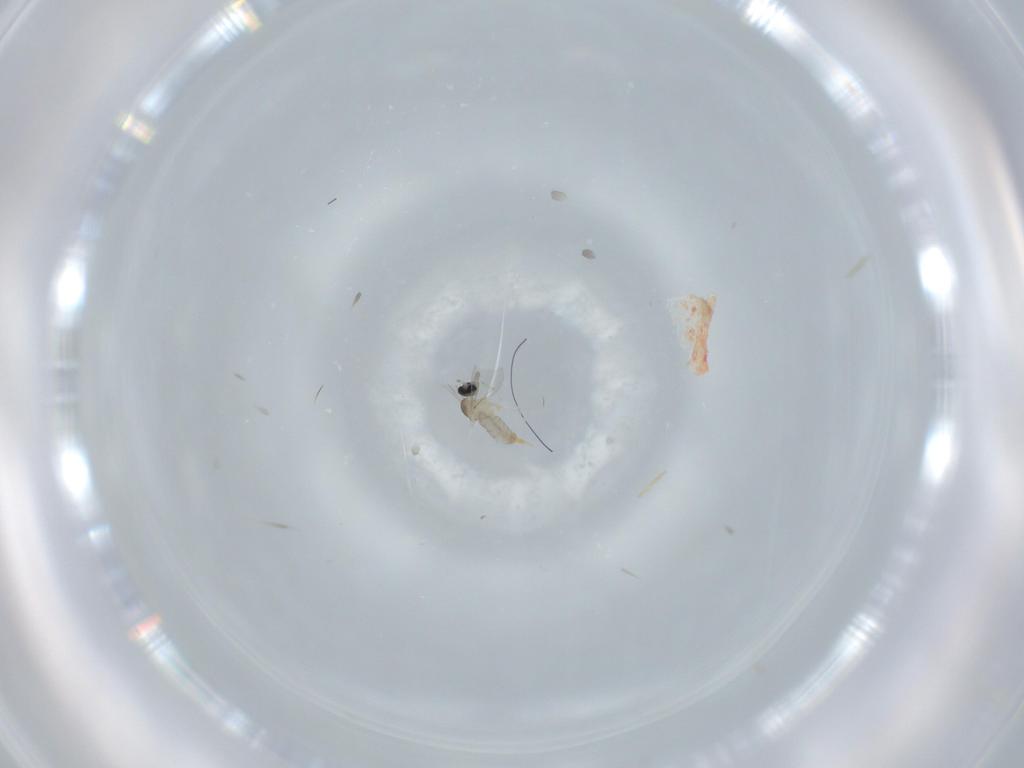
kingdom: Animalia
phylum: Arthropoda
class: Insecta
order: Diptera
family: Cecidomyiidae
